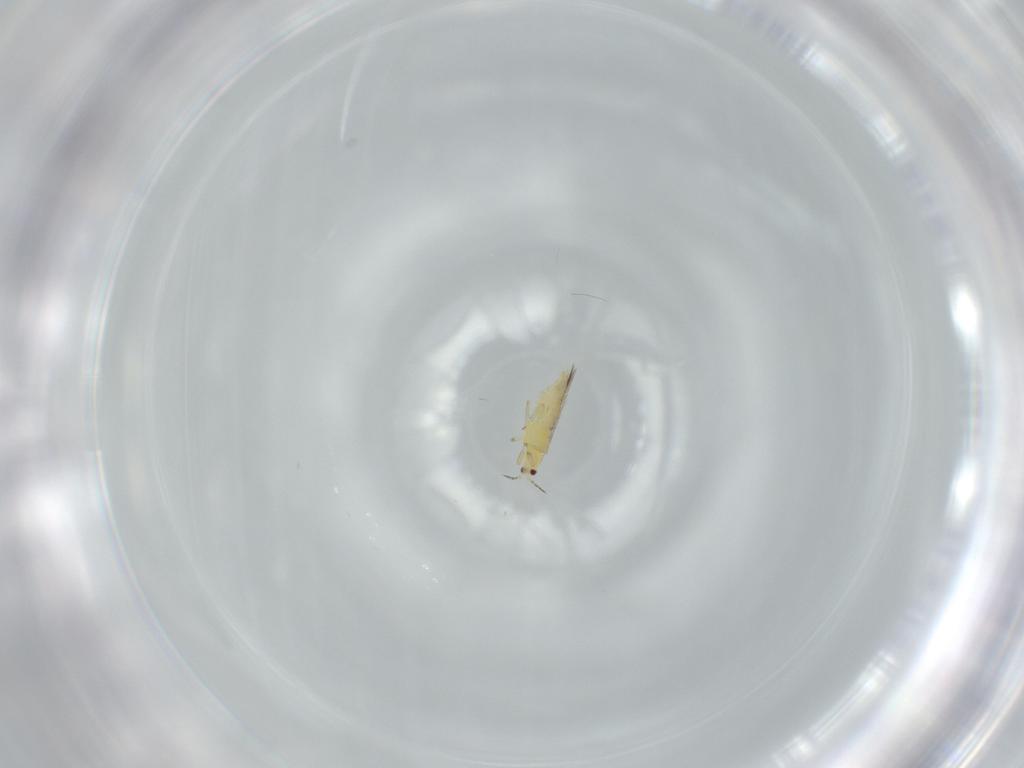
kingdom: Animalia
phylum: Arthropoda
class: Insecta
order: Thysanoptera
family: Thripidae
